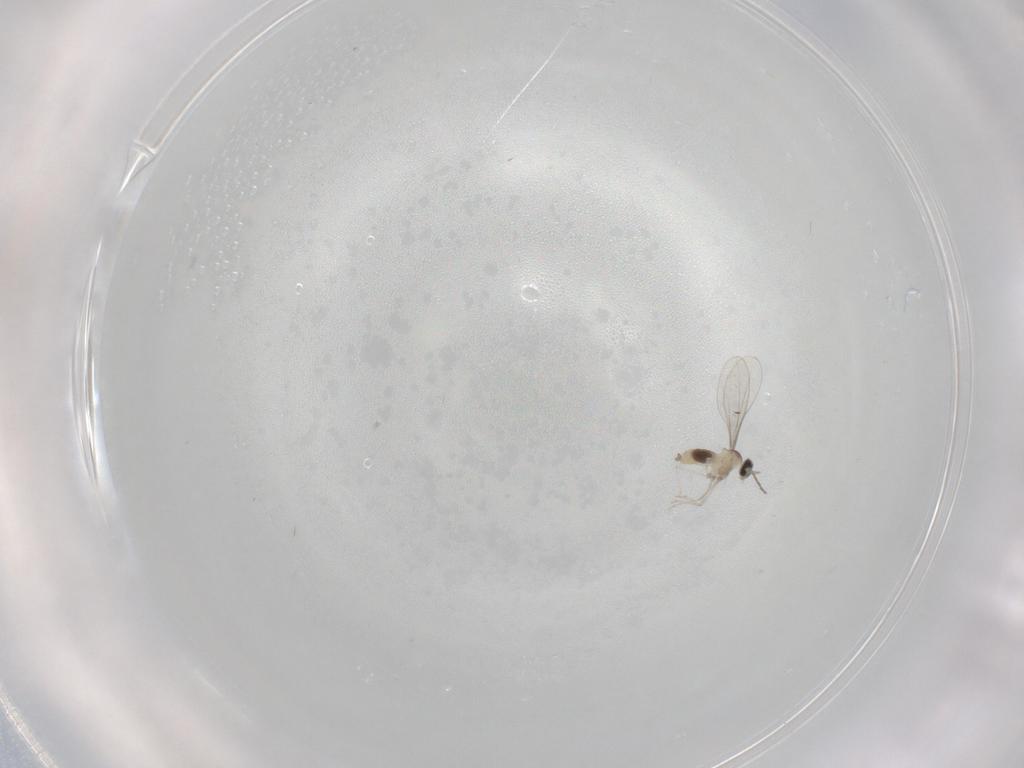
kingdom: Animalia
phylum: Arthropoda
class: Insecta
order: Diptera
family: Cecidomyiidae
